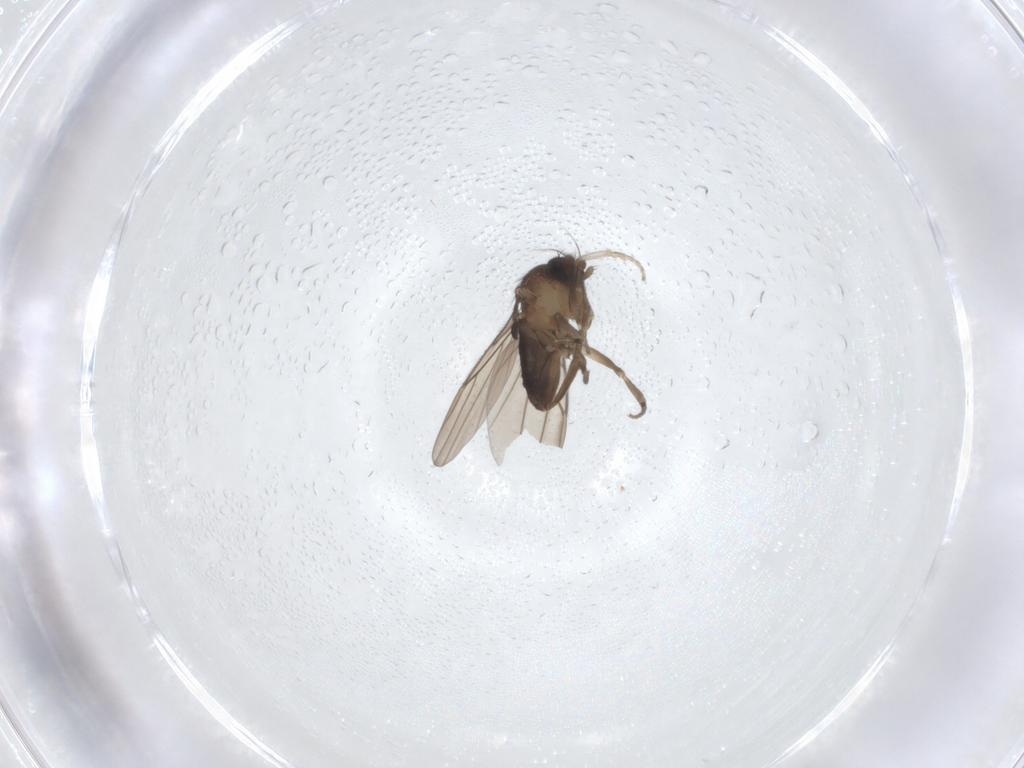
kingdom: Animalia
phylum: Arthropoda
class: Insecta
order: Diptera
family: Phoridae
